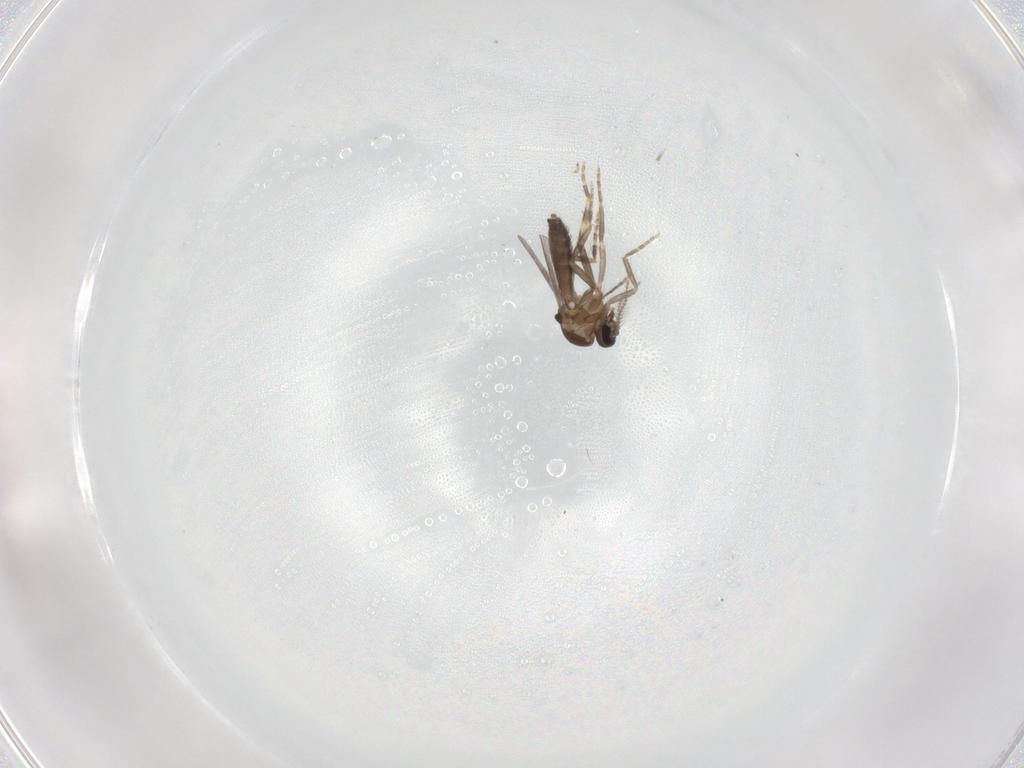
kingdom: Animalia
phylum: Arthropoda
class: Insecta
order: Diptera
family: Ceratopogonidae
